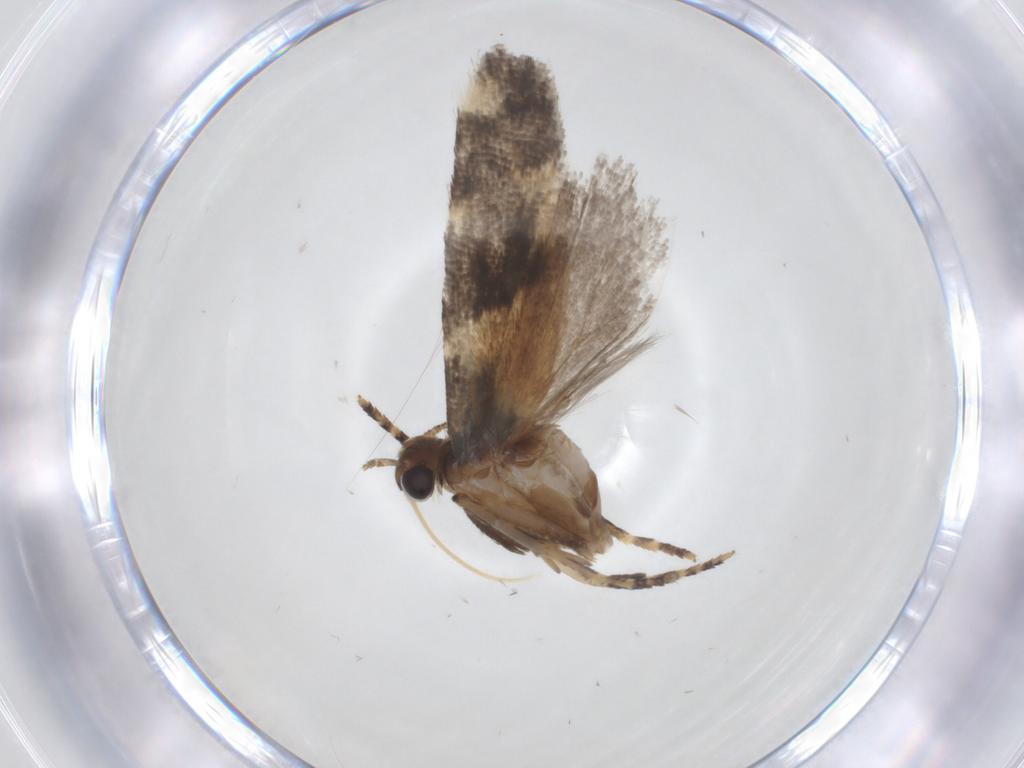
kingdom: Animalia
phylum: Arthropoda
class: Insecta
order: Lepidoptera
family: Gelechiidae
